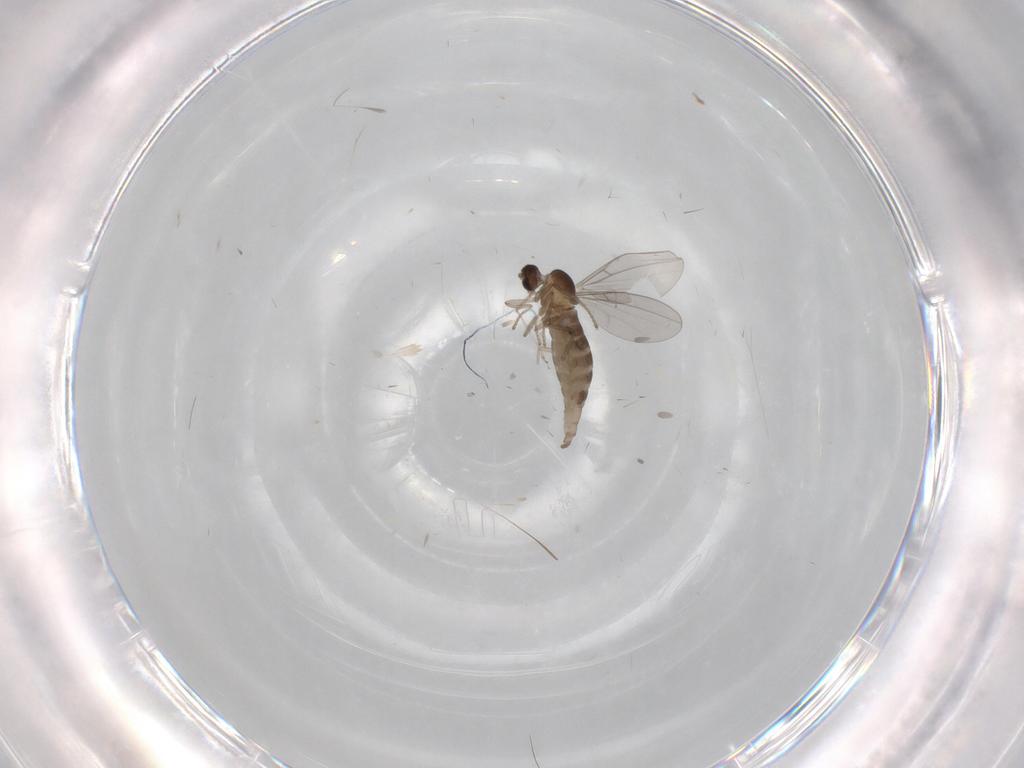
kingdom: Animalia
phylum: Arthropoda
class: Insecta
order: Diptera
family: Cecidomyiidae
